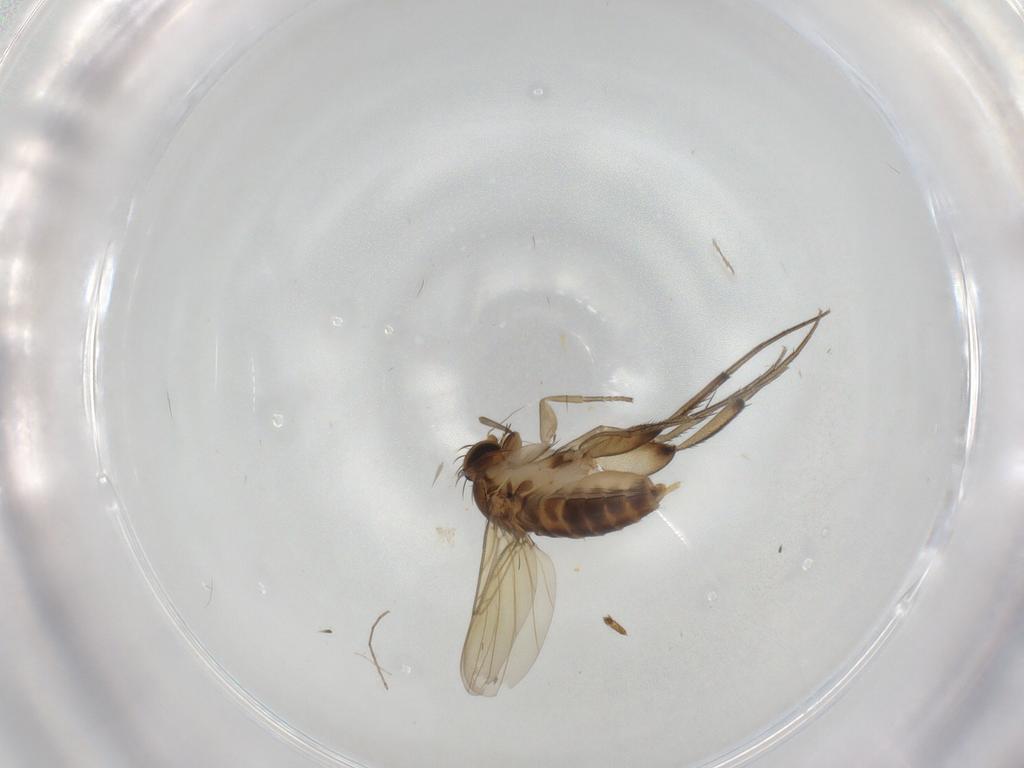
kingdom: Animalia
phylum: Arthropoda
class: Insecta
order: Diptera
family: Phoridae
